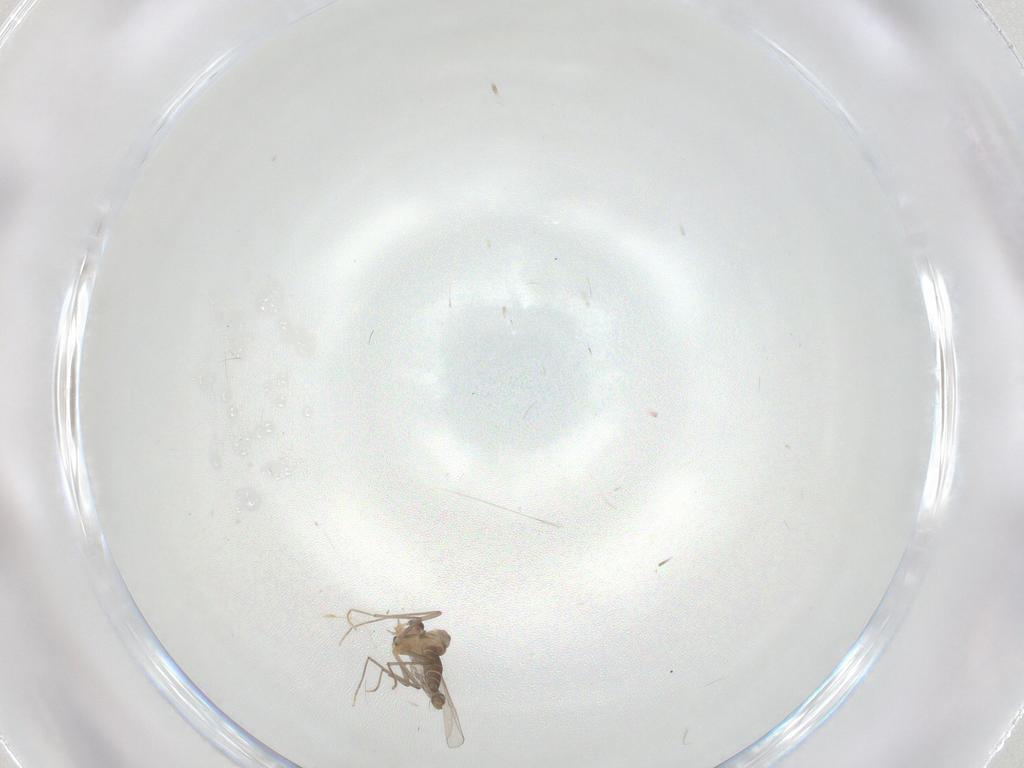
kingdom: Animalia
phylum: Arthropoda
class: Insecta
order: Diptera
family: Chironomidae
